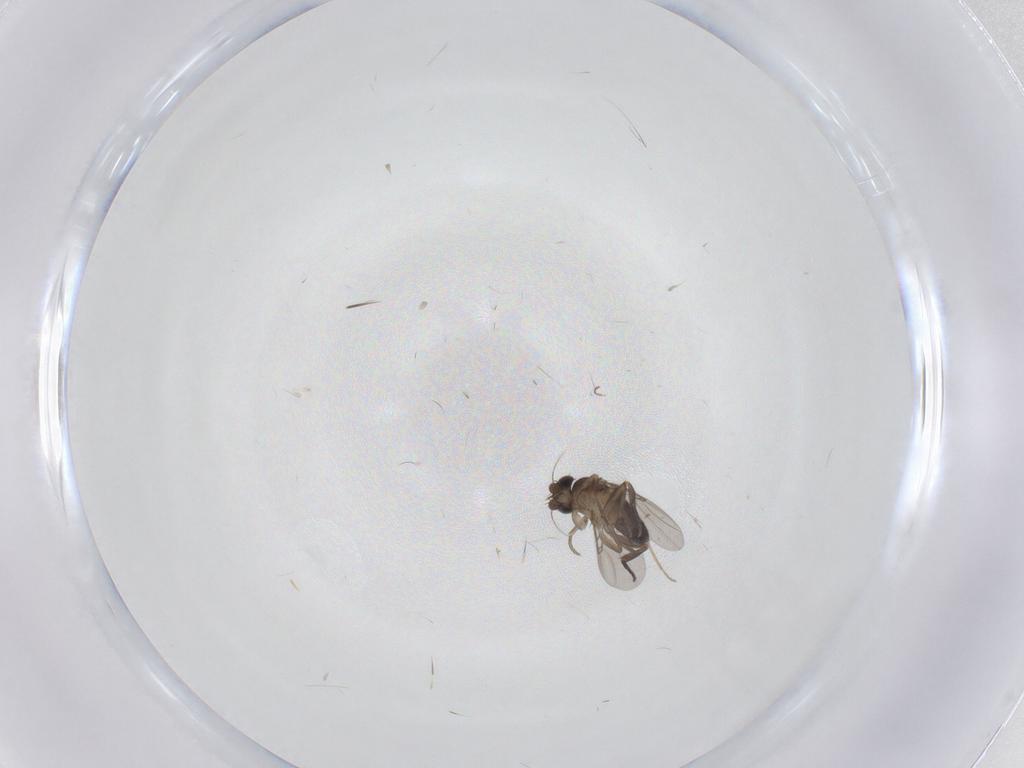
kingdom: Animalia
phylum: Arthropoda
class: Insecta
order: Diptera
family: Phoridae
